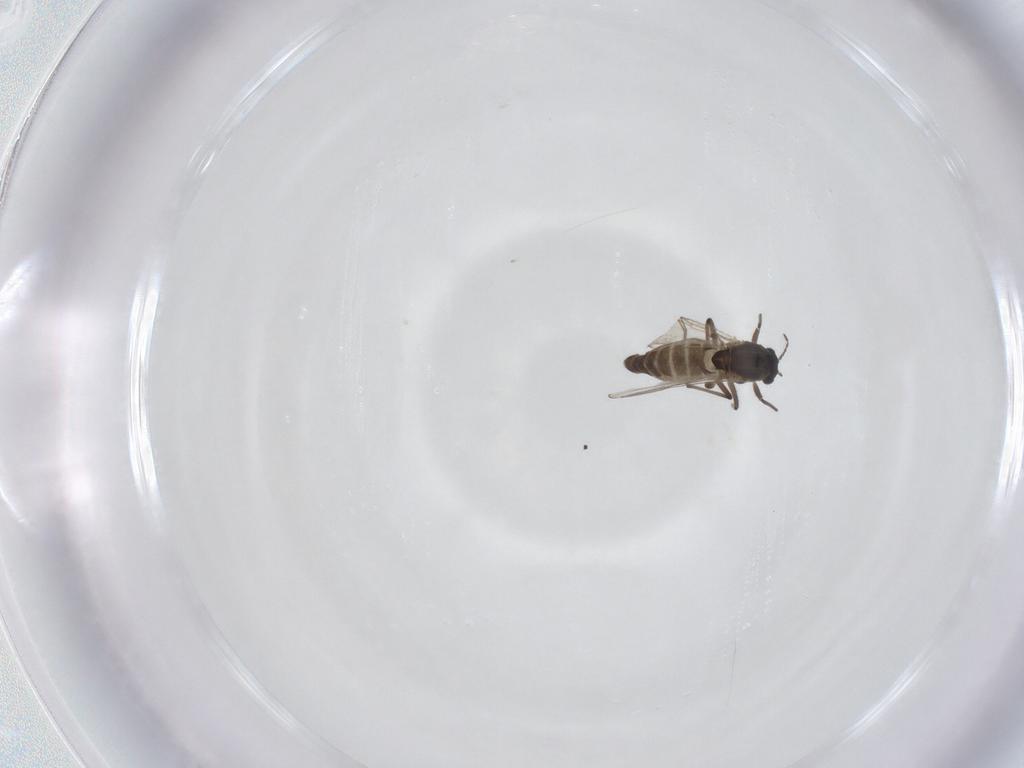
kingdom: Animalia
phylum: Arthropoda
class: Insecta
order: Diptera
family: Chironomidae
